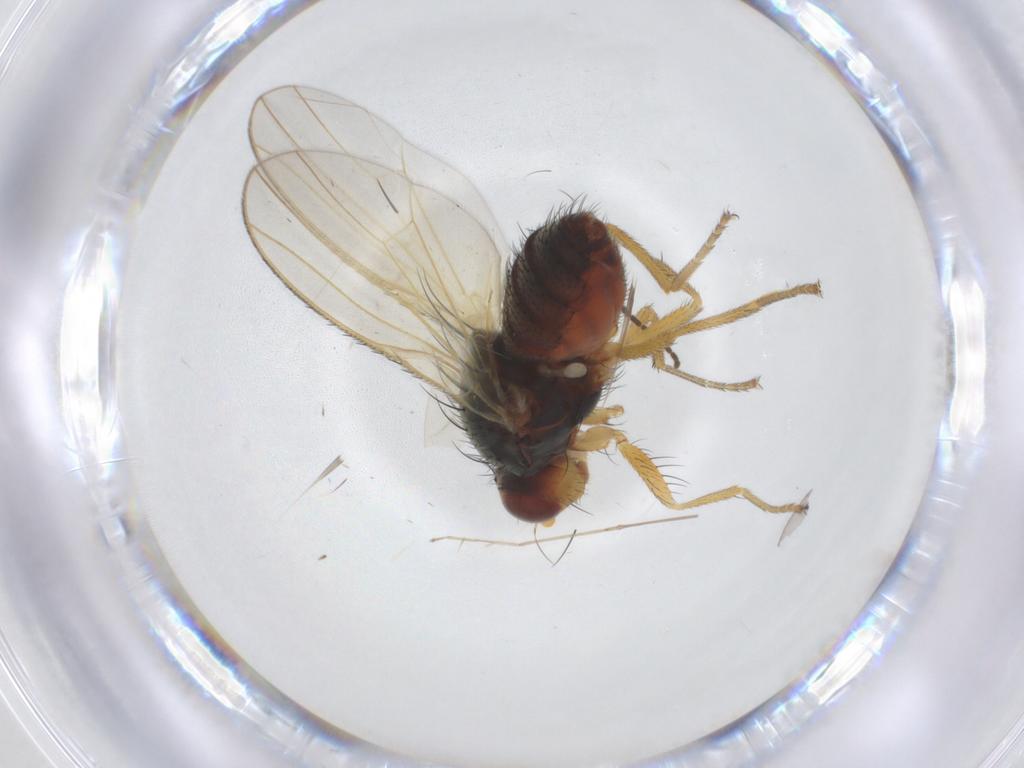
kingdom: Animalia
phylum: Arthropoda
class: Insecta
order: Diptera
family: Heleomyzidae
